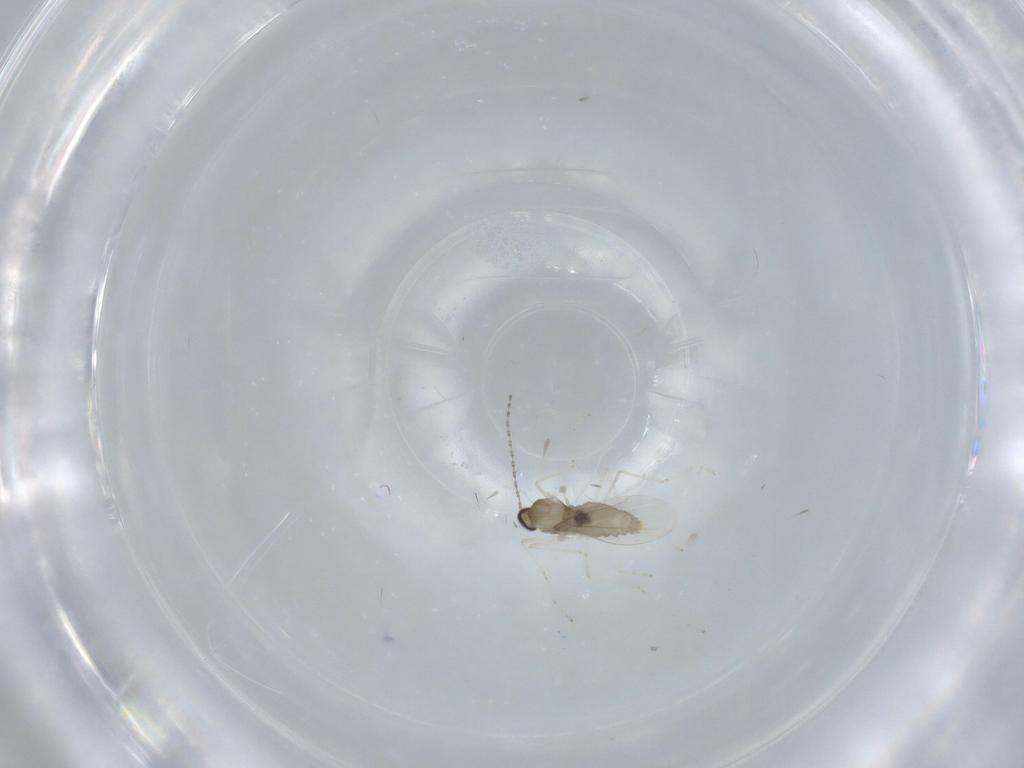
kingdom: Animalia
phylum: Arthropoda
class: Insecta
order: Diptera
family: Cecidomyiidae
